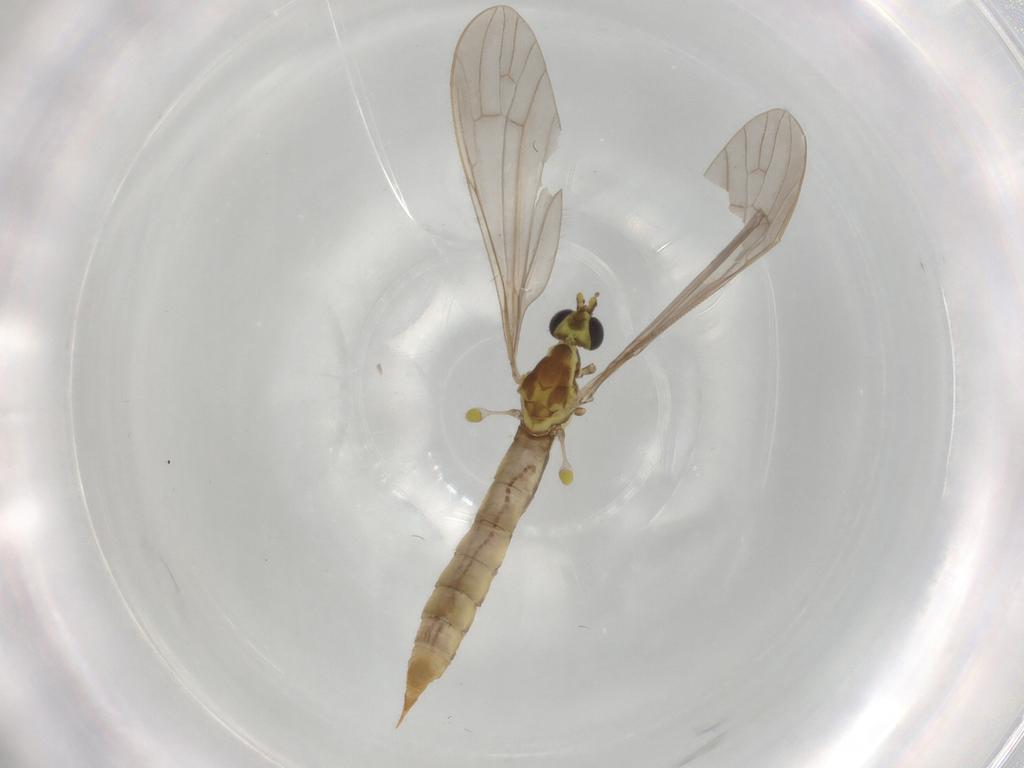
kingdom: Animalia
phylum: Arthropoda
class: Insecta
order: Diptera
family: Cecidomyiidae
